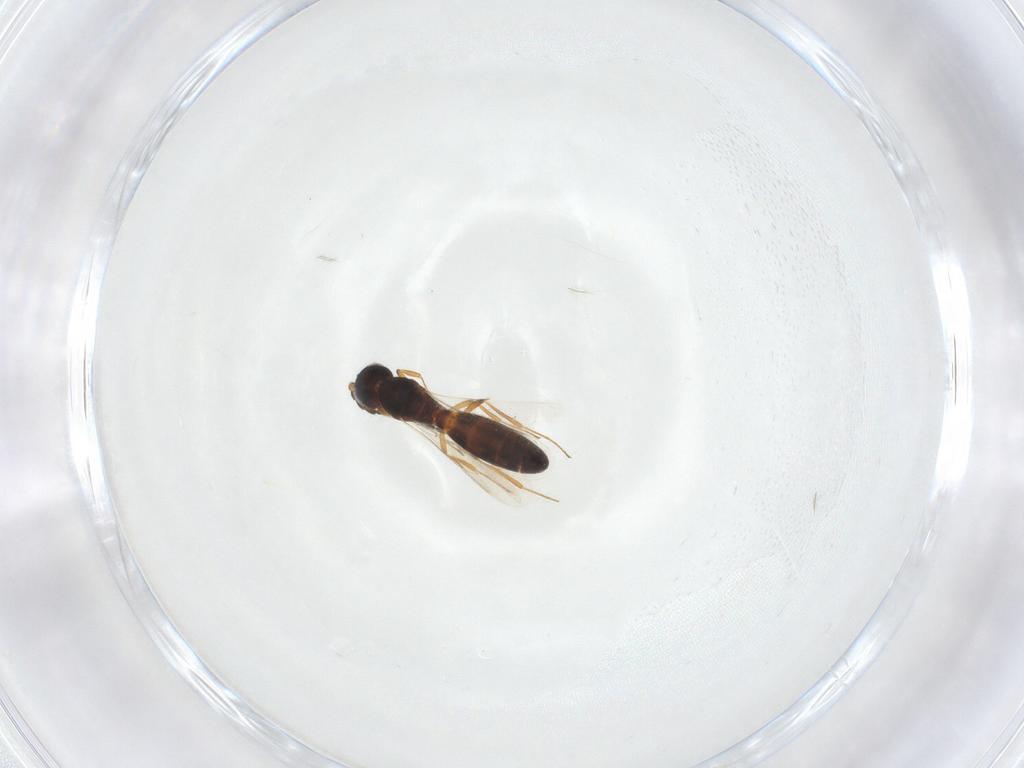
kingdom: Animalia
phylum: Arthropoda
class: Insecta
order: Hymenoptera
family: Scelionidae
